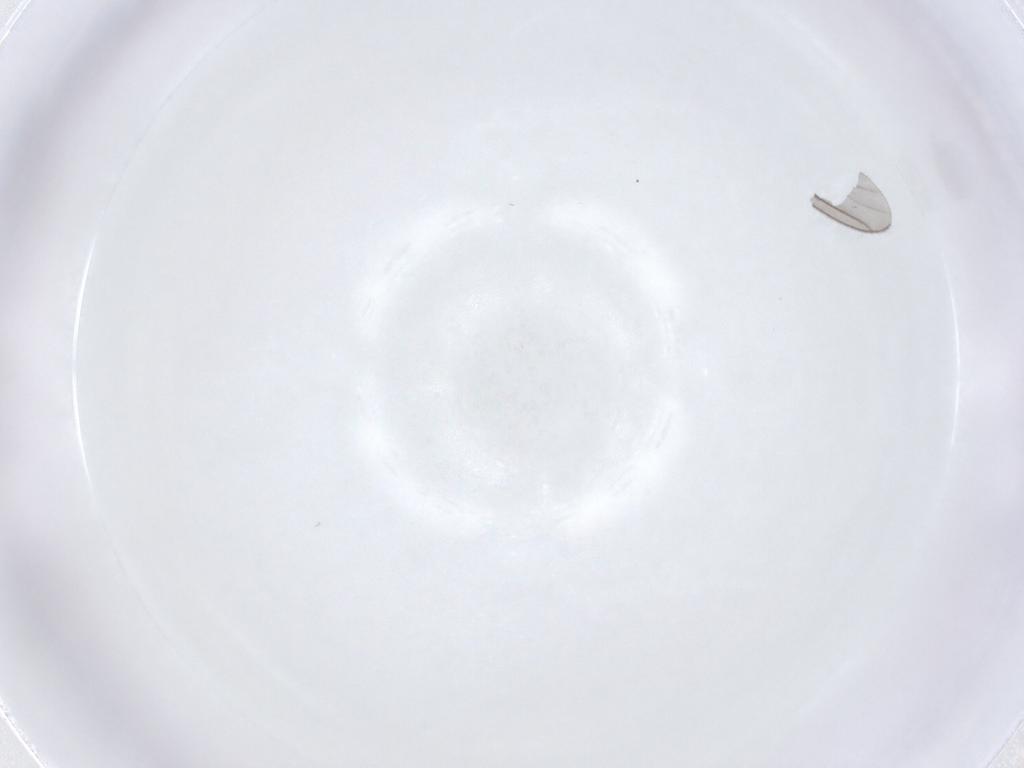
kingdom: Animalia
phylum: Arthropoda
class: Insecta
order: Diptera
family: Psychodidae
